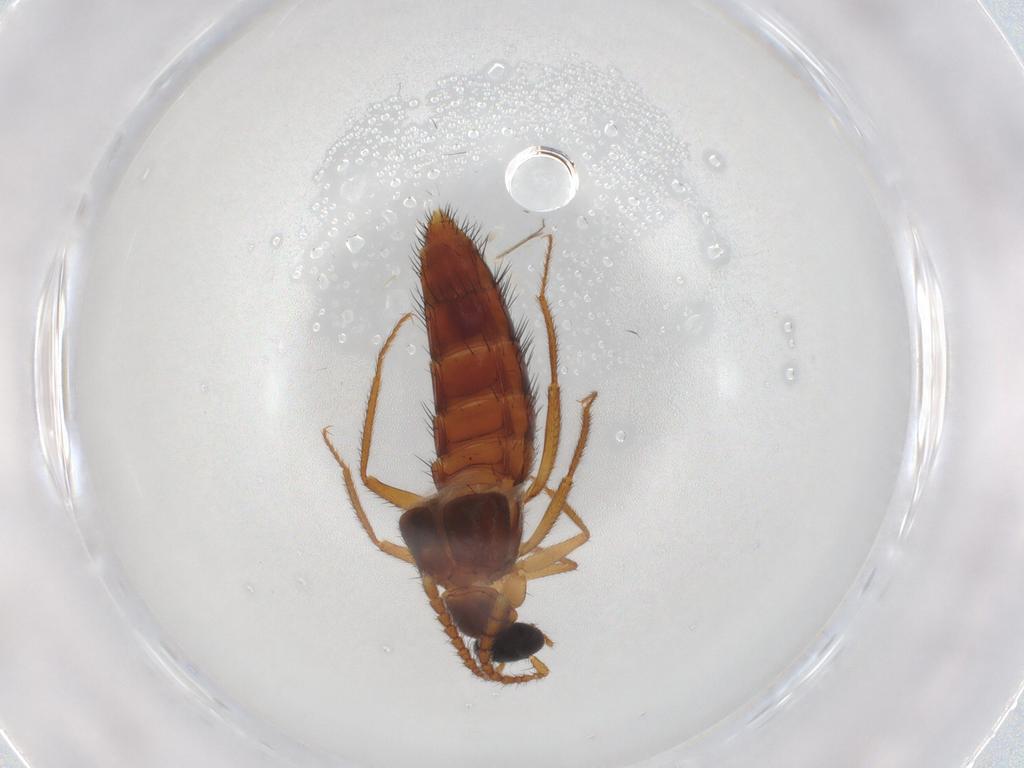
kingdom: Animalia
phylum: Arthropoda
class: Insecta
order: Coleoptera
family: Staphylinidae
